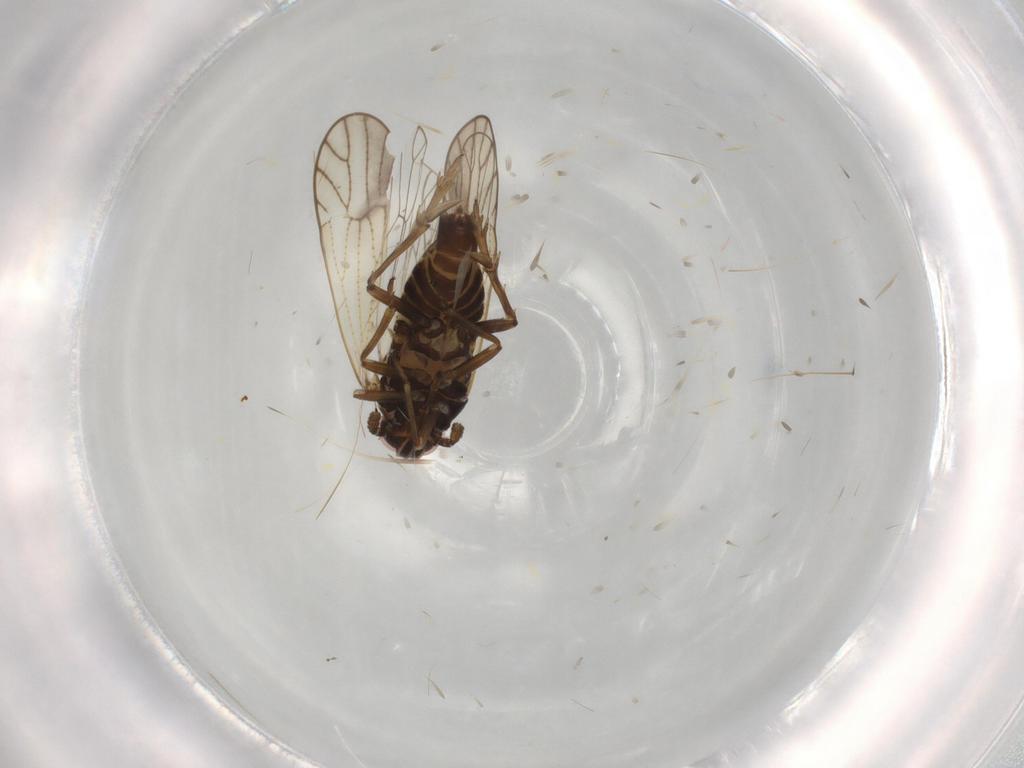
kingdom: Animalia
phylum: Arthropoda
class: Insecta
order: Hemiptera
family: Delphacidae
